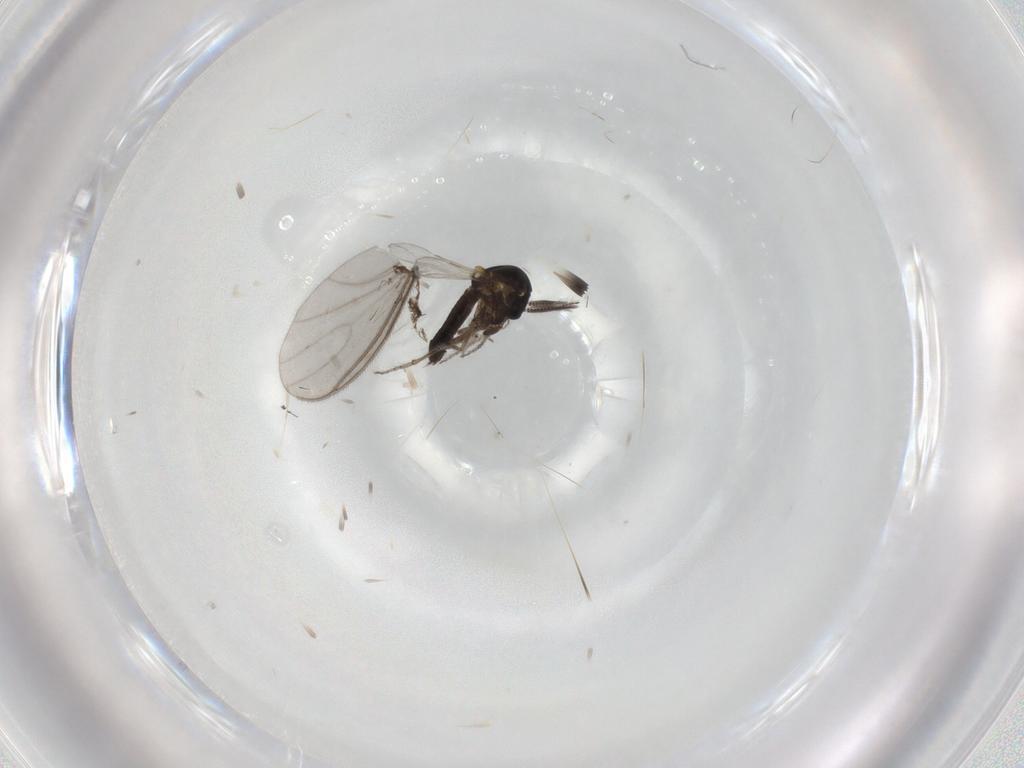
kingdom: Animalia
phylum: Arthropoda
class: Insecta
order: Diptera
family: Ceratopogonidae
